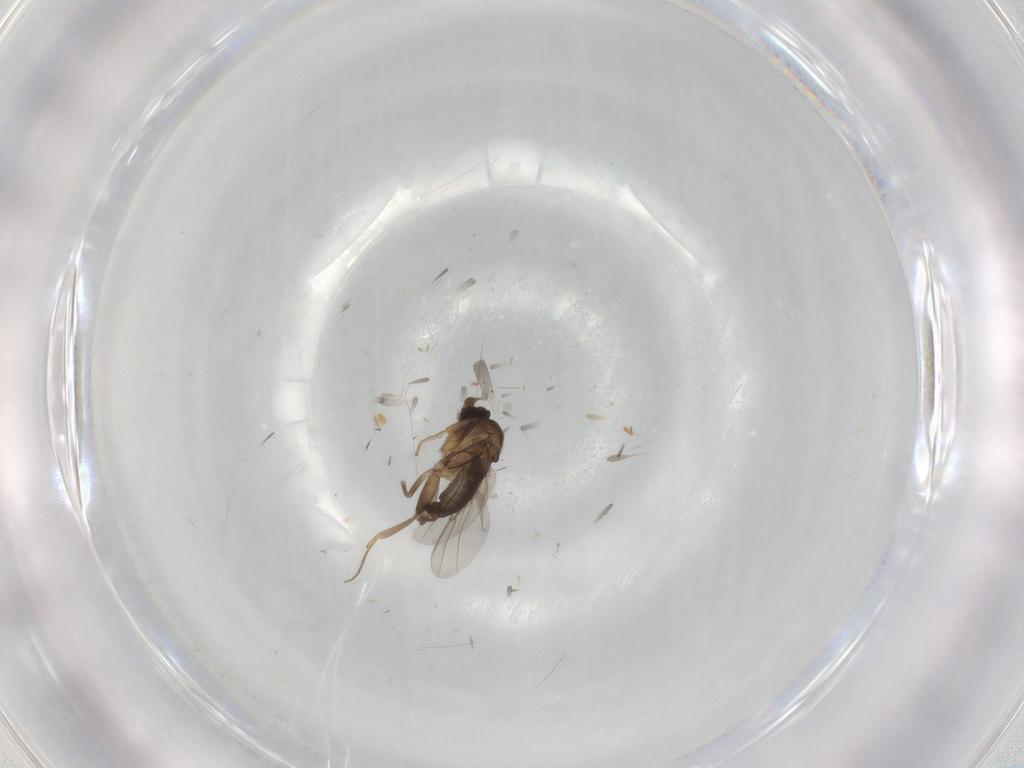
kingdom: Animalia
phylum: Arthropoda
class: Insecta
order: Diptera
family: Phoridae
